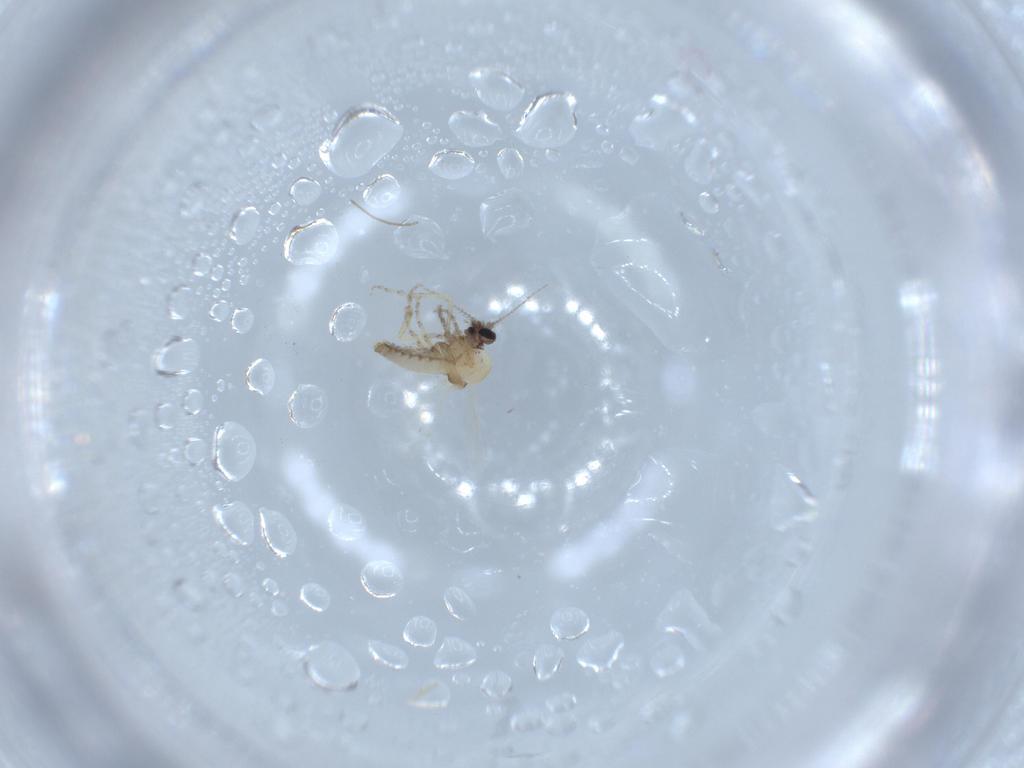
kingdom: Animalia
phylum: Arthropoda
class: Insecta
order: Diptera
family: Ceratopogonidae
